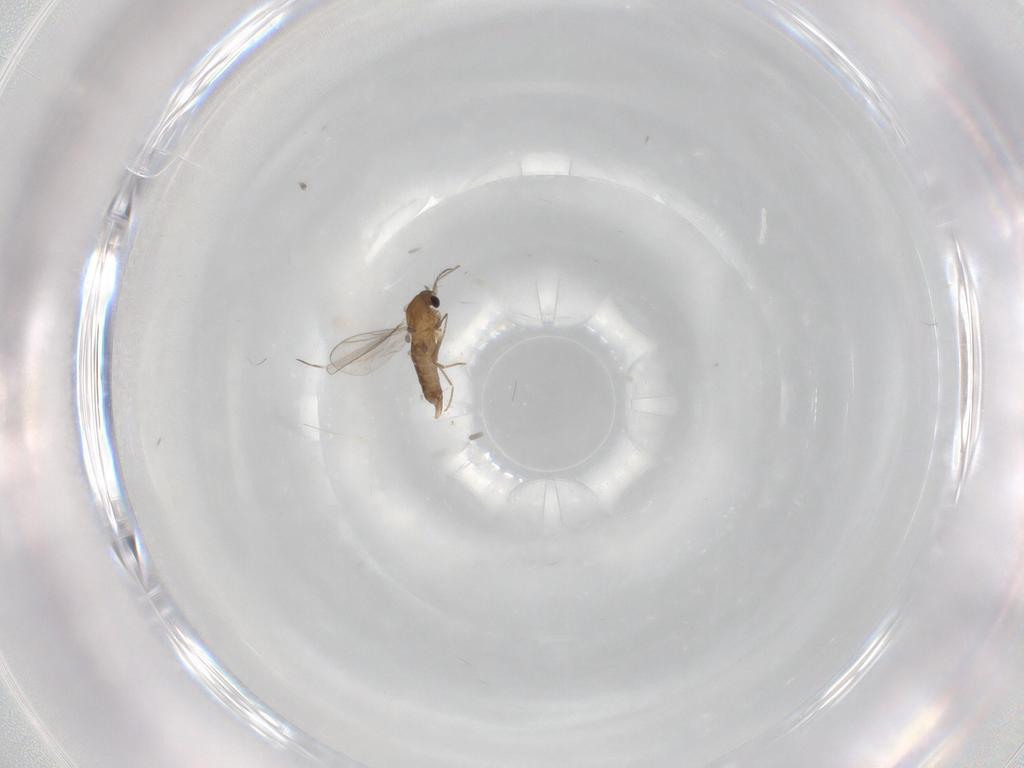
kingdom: Animalia
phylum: Arthropoda
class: Insecta
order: Diptera
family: Chironomidae
